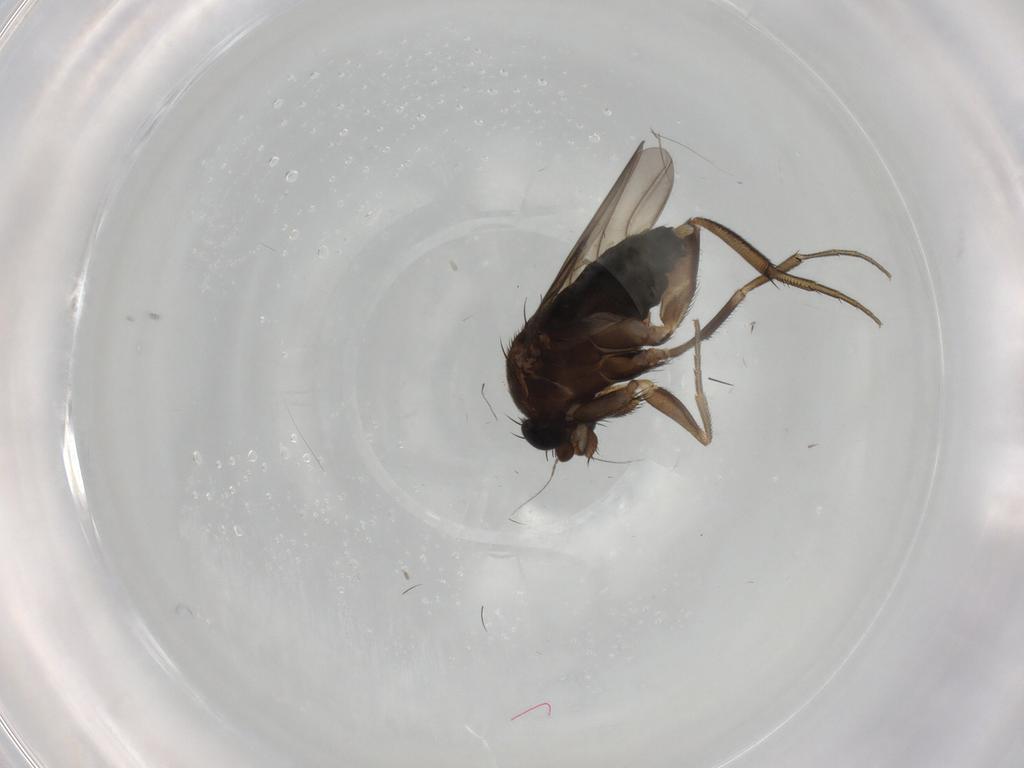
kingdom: Animalia
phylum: Arthropoda
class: Insecta
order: Diptera
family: Phoridae
